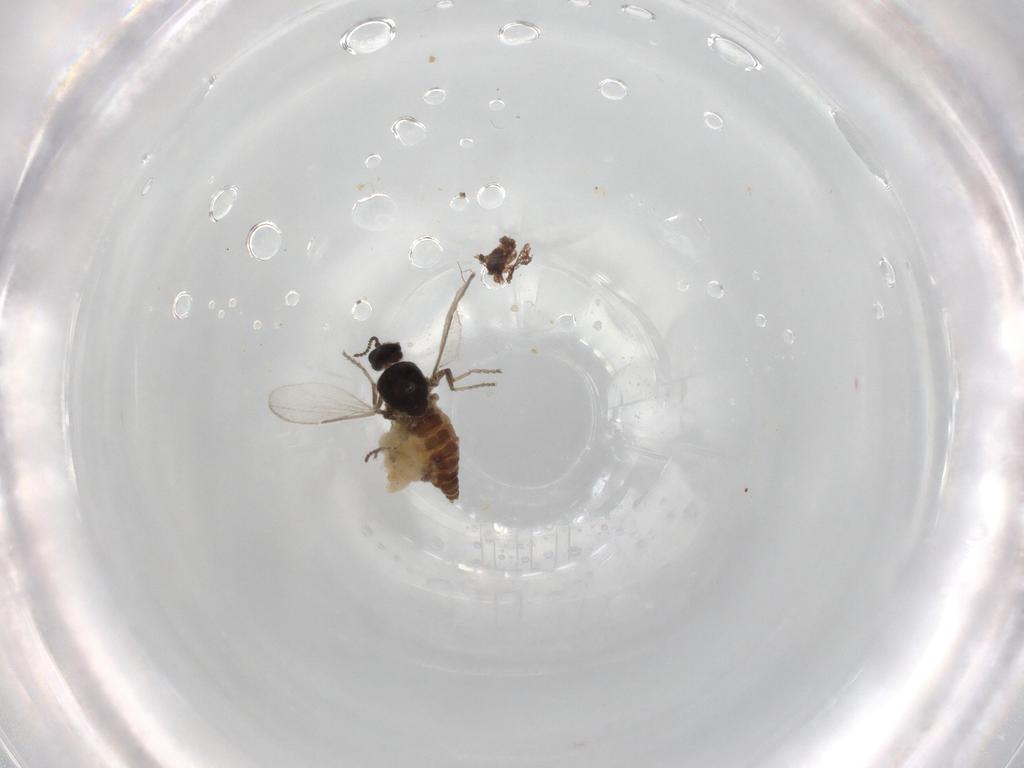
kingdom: Animalia
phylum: Arthropoda
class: Insecta
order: Diptera
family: Ceratopogonidae
